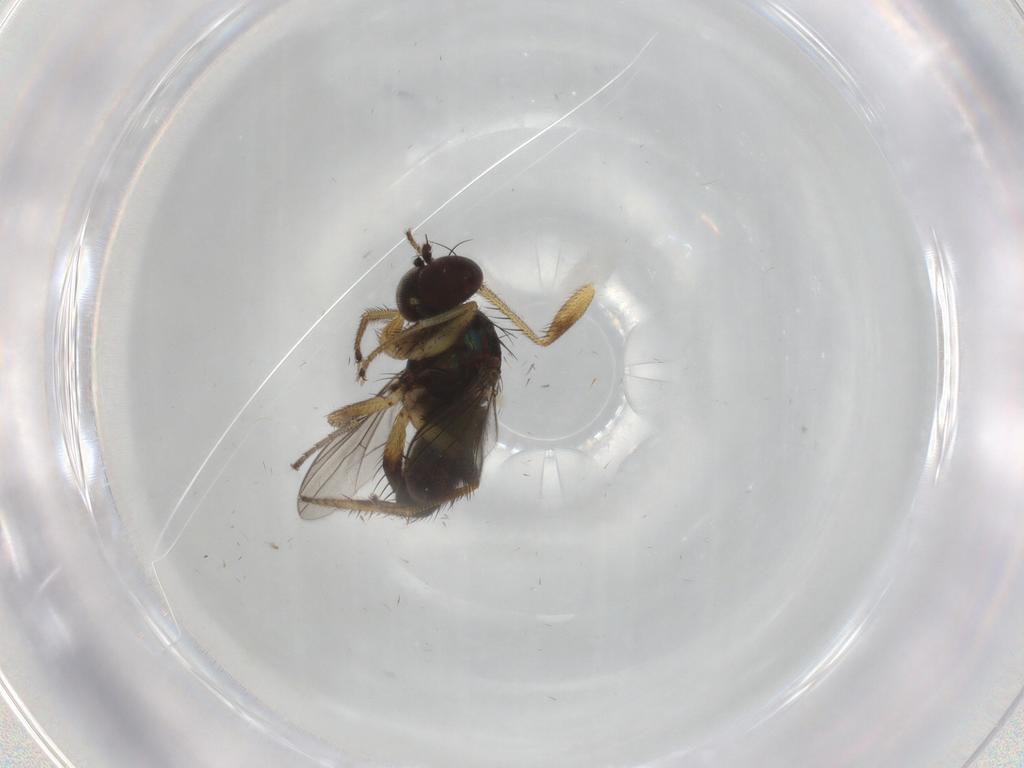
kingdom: Animalia
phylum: Arthropoda
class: Insecta
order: Diptera
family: Dolichopodidae
